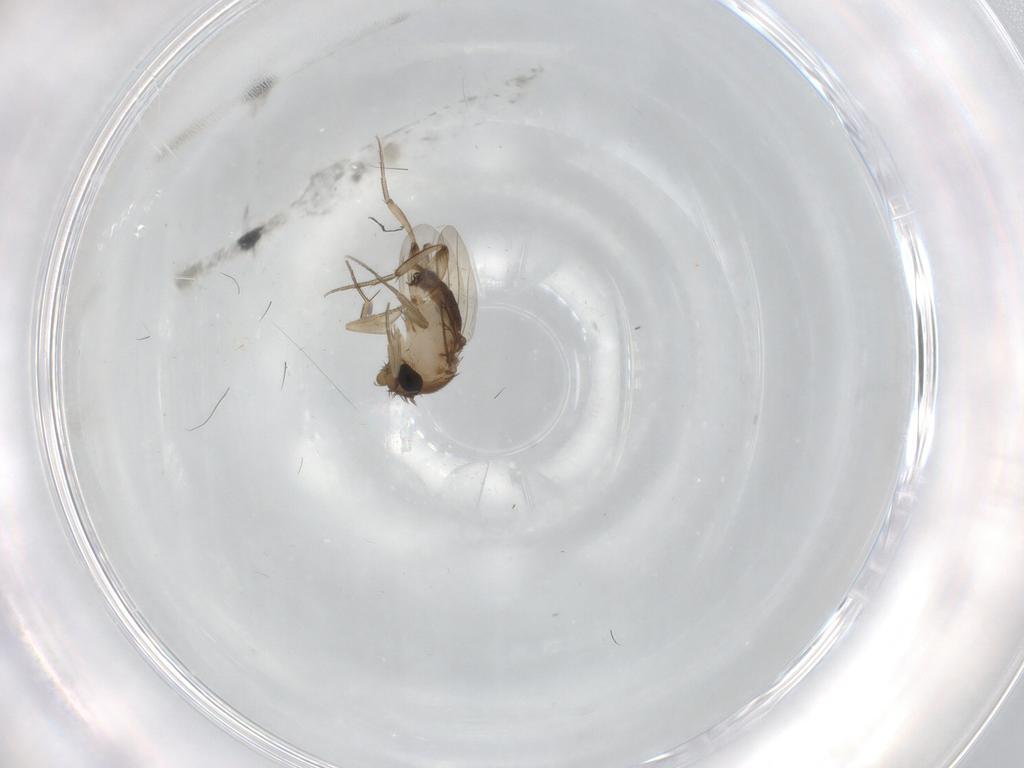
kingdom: Animalia
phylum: Arthropoda
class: Insecta
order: Diptera
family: Phoridae
